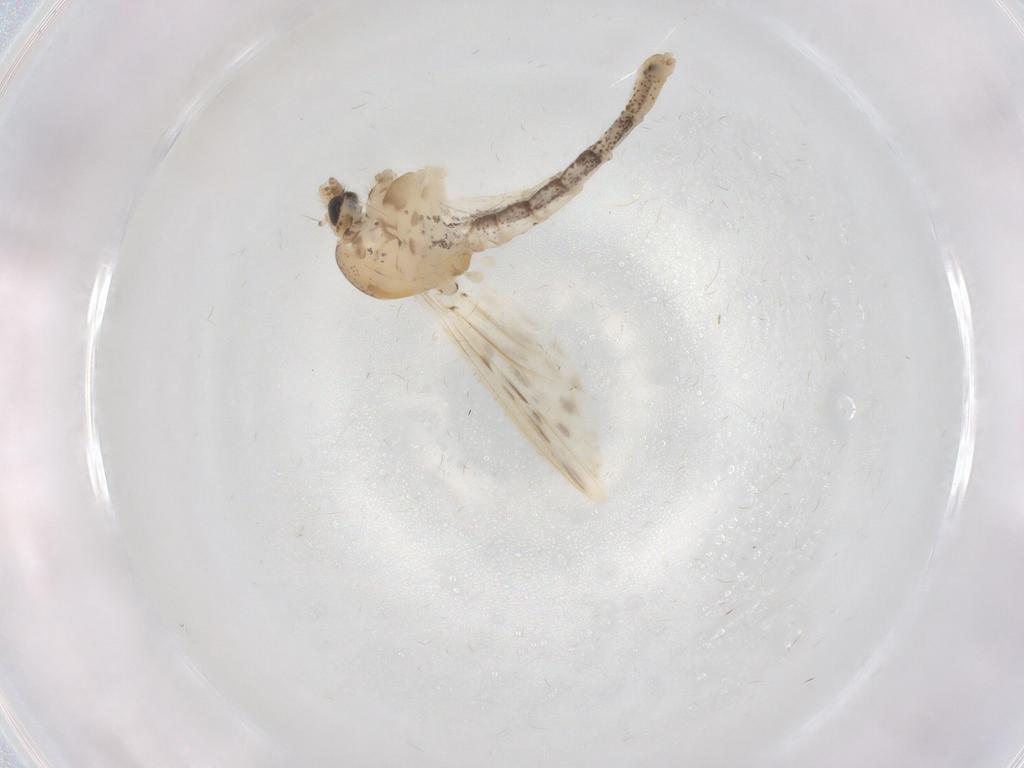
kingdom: Animalia
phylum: Arthropoda
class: Insecta
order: Diptera
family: Chaoboridae
